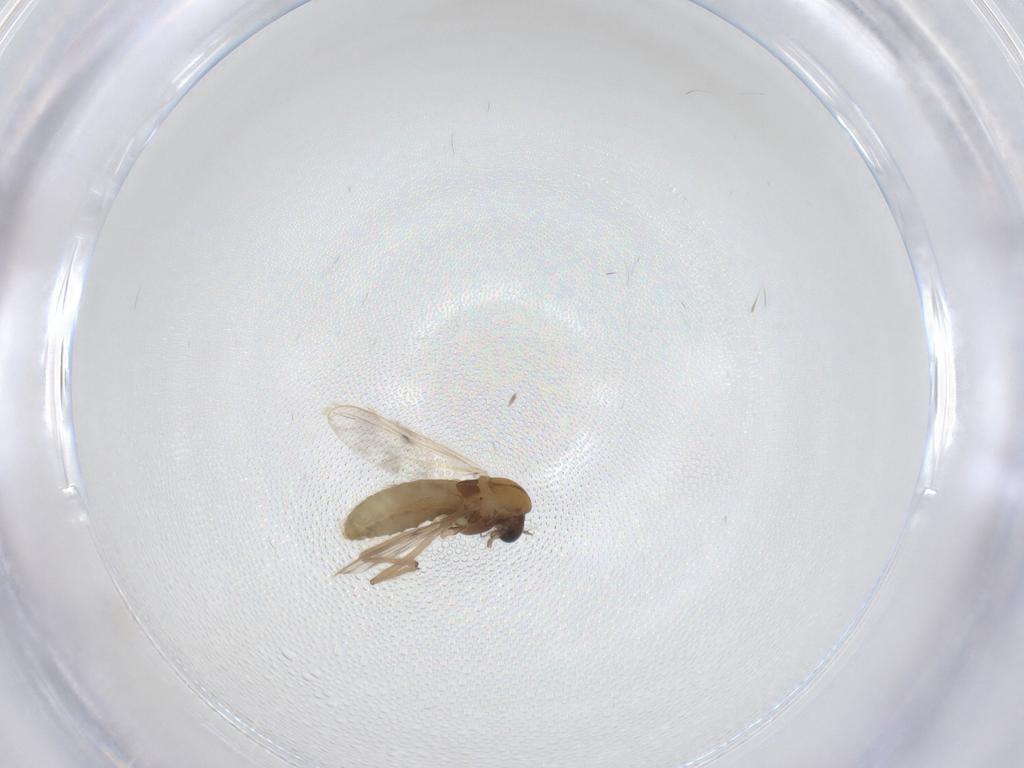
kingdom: Animalia
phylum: Arthropoda
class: Insecta
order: Diptera
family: Chironomidae
